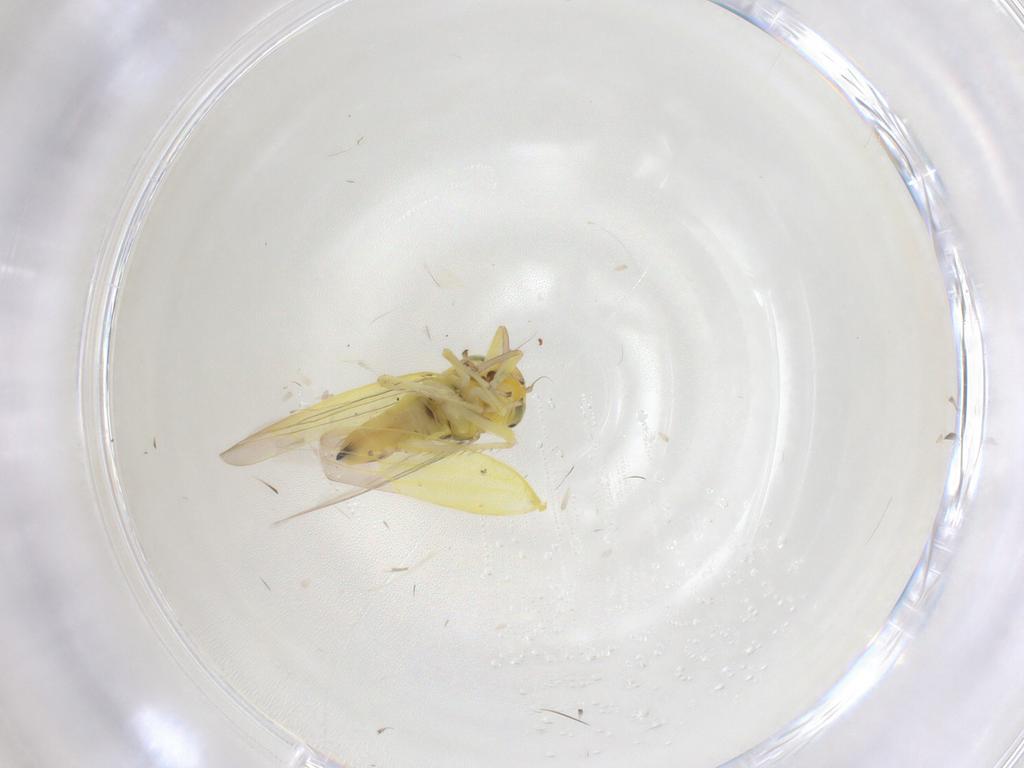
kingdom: Animalia
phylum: Arthropoda
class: Insecta
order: Hemiptera
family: Cicadellidae
